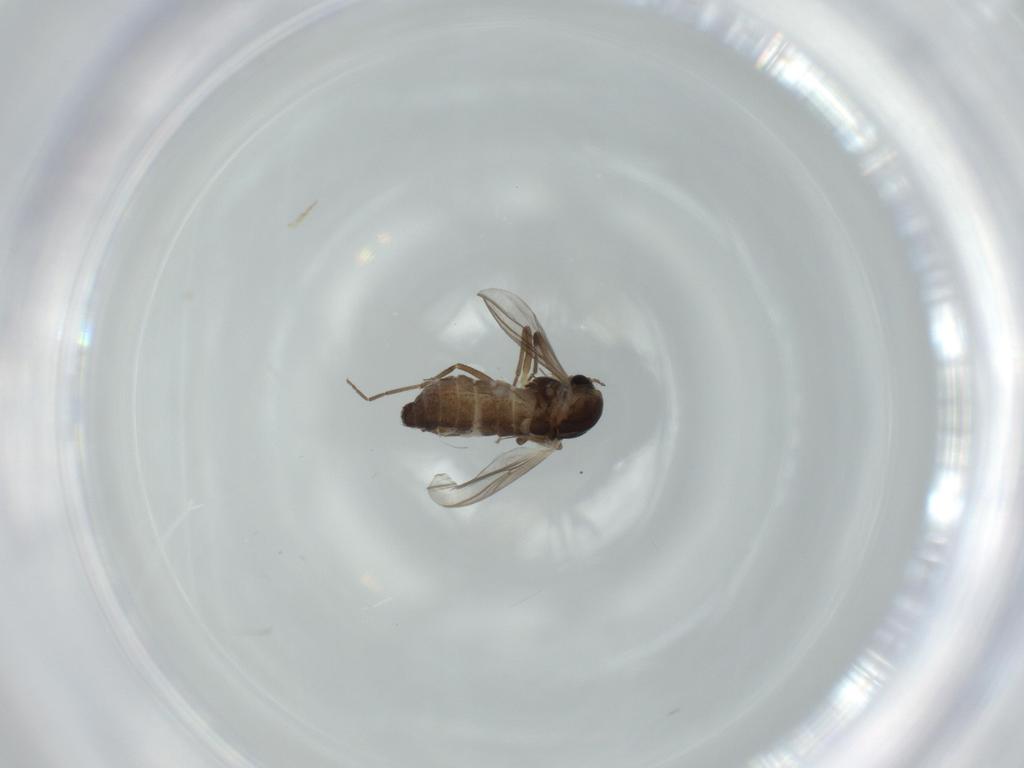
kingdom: Animalia
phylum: Arthropoda
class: Insecta
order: Diptera
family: Chironomidae
